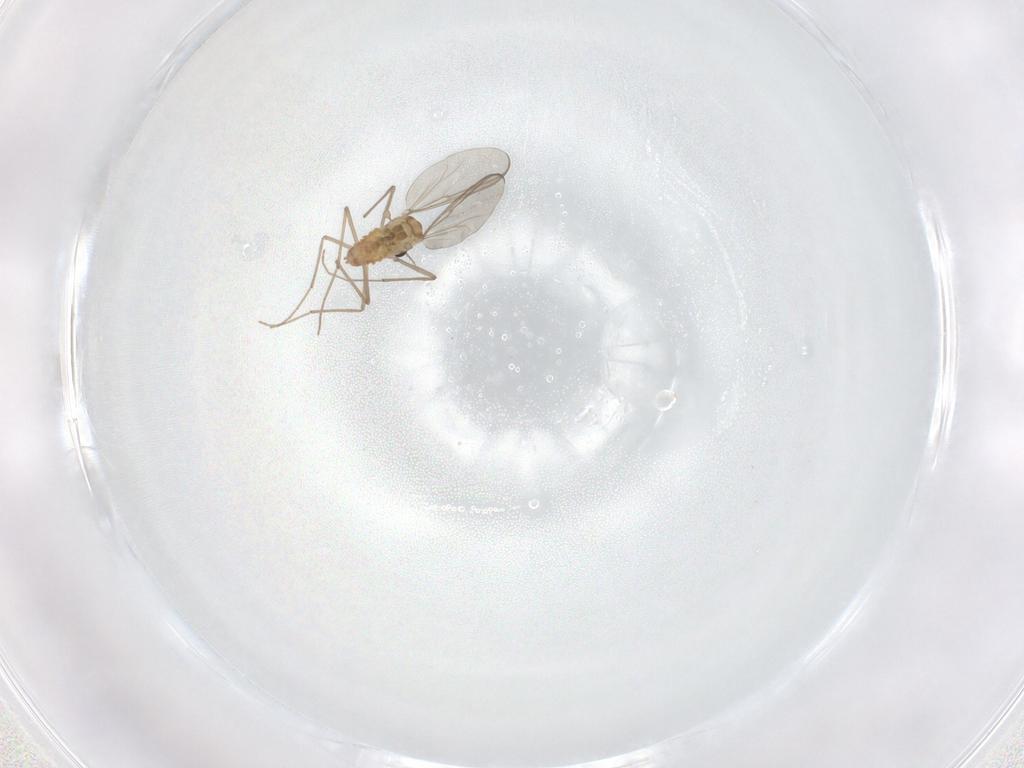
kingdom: Animalia
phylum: Arthropoda
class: Insecta
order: Diptera
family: Chironomidae
